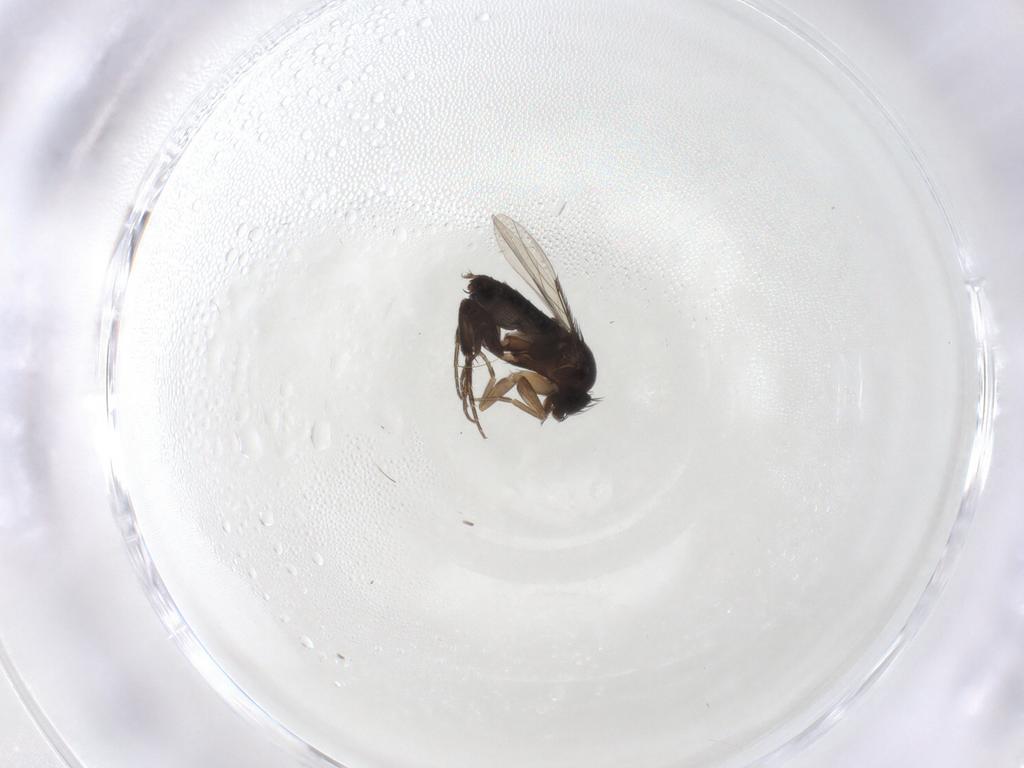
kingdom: Animalia
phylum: Arthropoda
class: Insecta
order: Diptera
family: Phoridae
